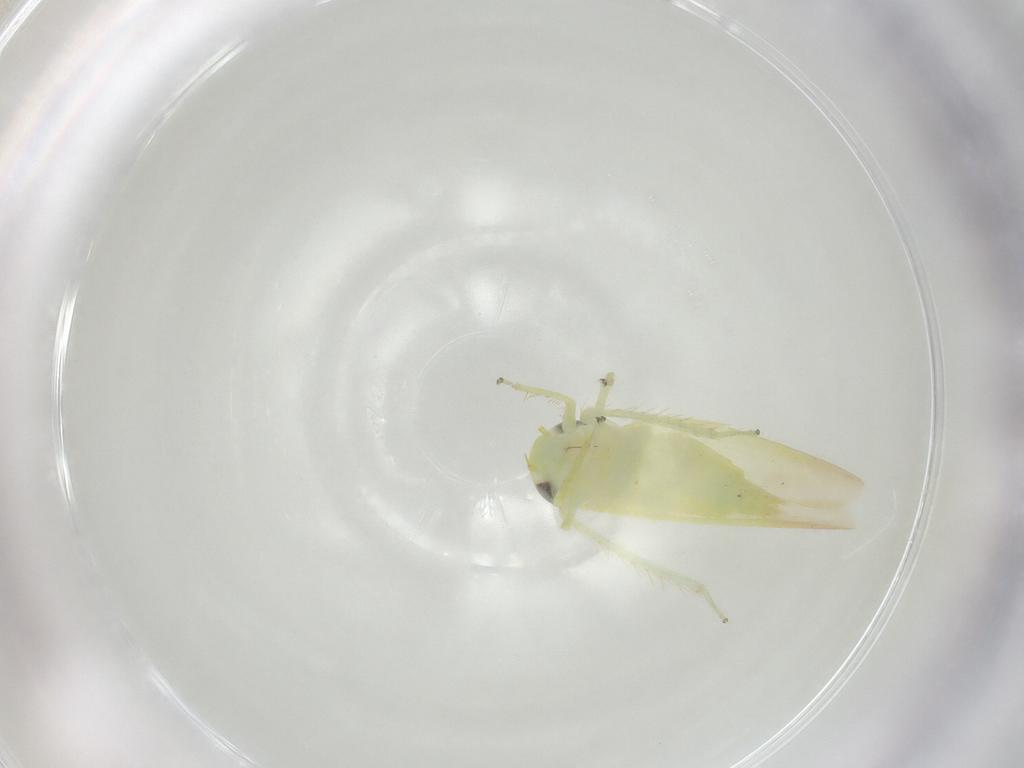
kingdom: Animalia
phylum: Arthropoda
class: Insecta
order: Hemiptera
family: Cicadellidae
